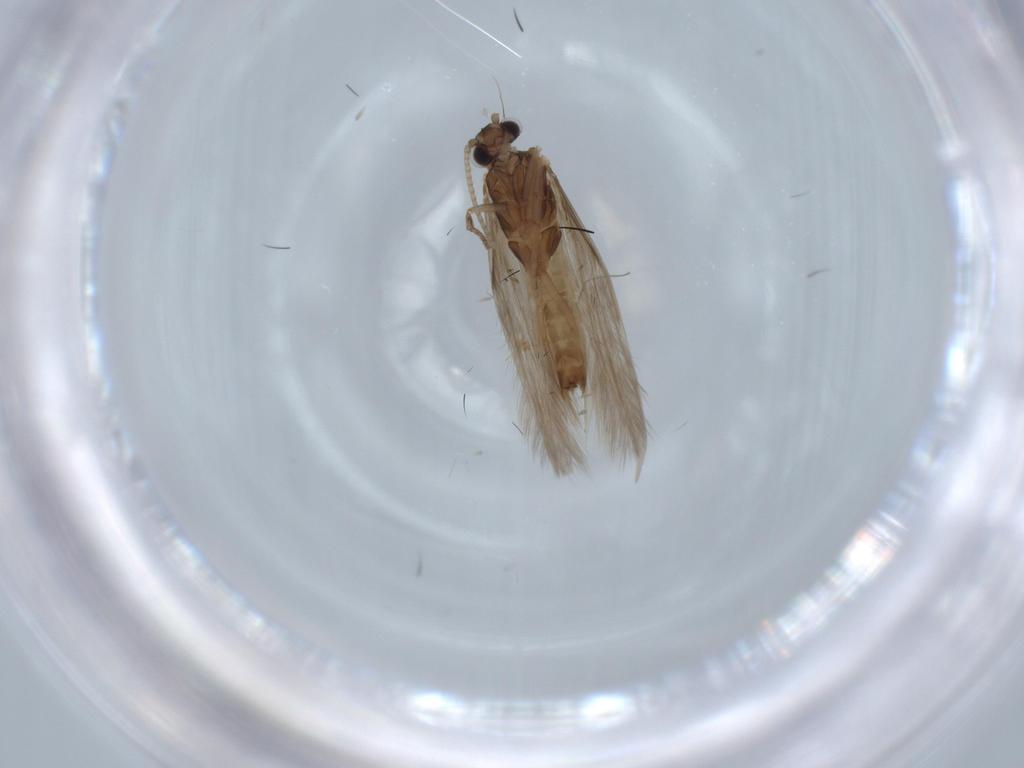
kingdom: Animalia
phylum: Arthropoda
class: Insecta
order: Trichoptera
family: Hydroptilidae
